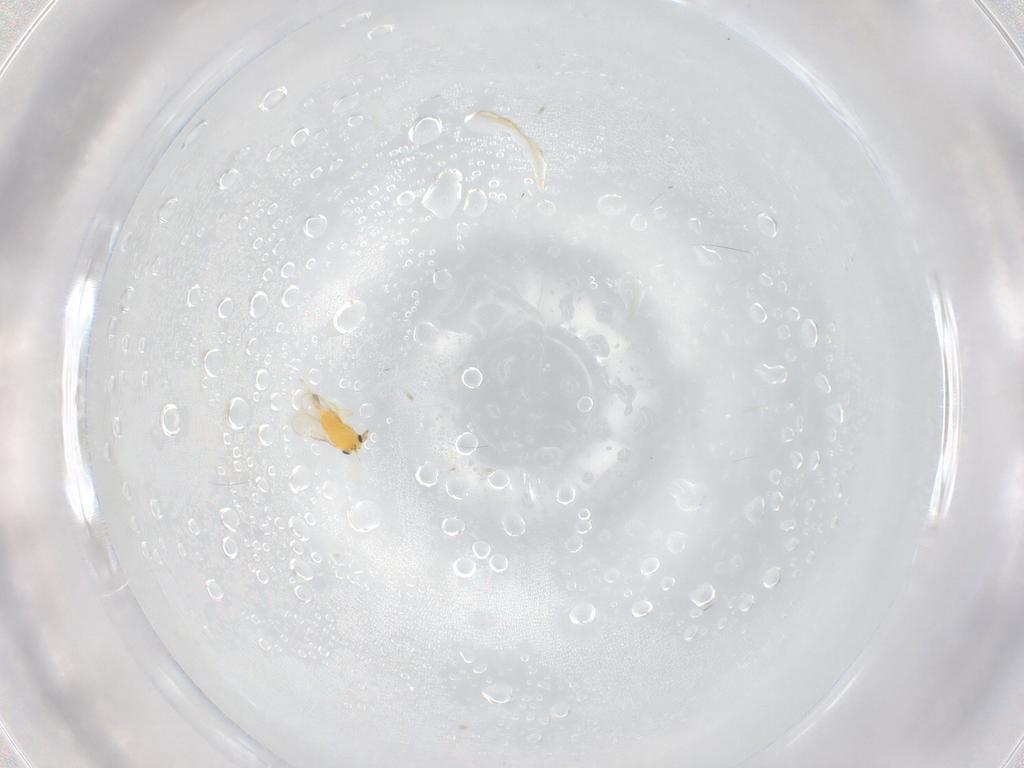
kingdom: Animalia
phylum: Arthropoda
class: Insecta
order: Hymenoptera
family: Aphelinidae
